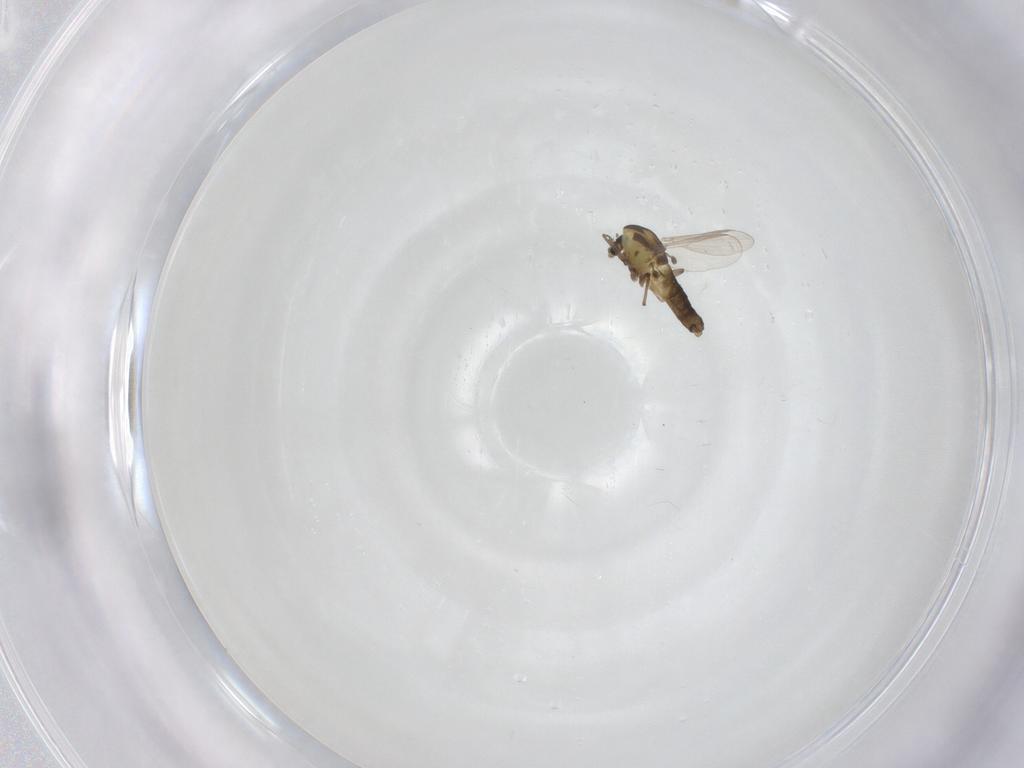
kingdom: Animalia
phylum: Arthropoda
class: Insecta
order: Diptera
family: Chironomidae
